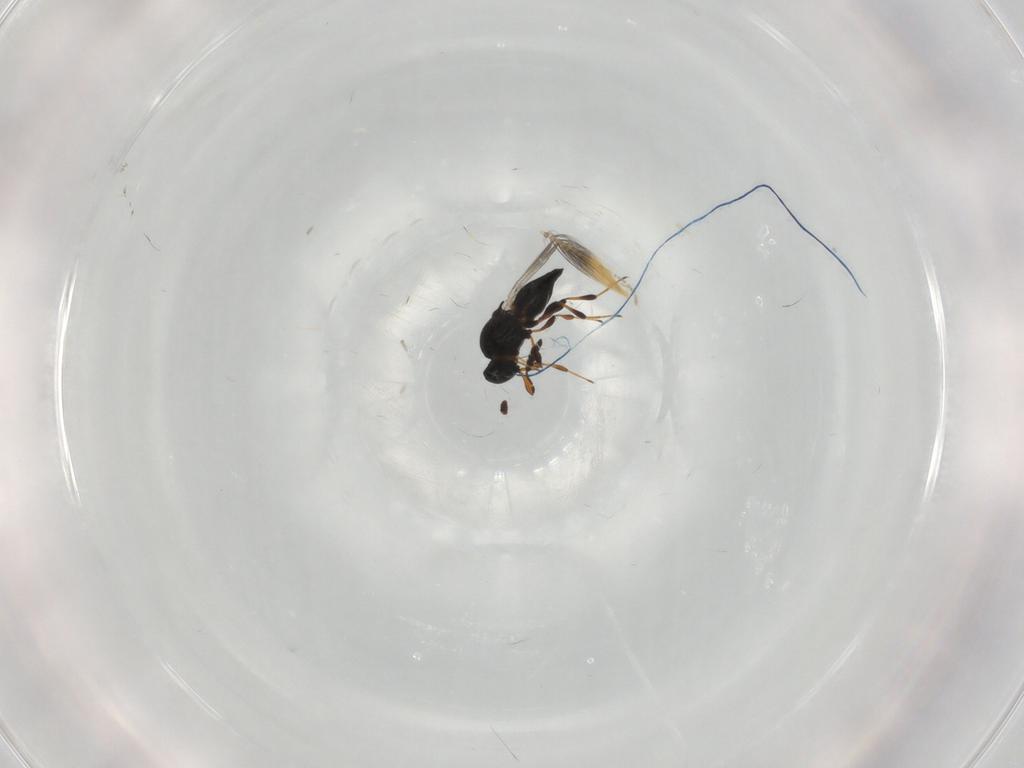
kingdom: Animalia
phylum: Arthropoda
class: Insecta
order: Hymenoptera
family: Platygastridae
